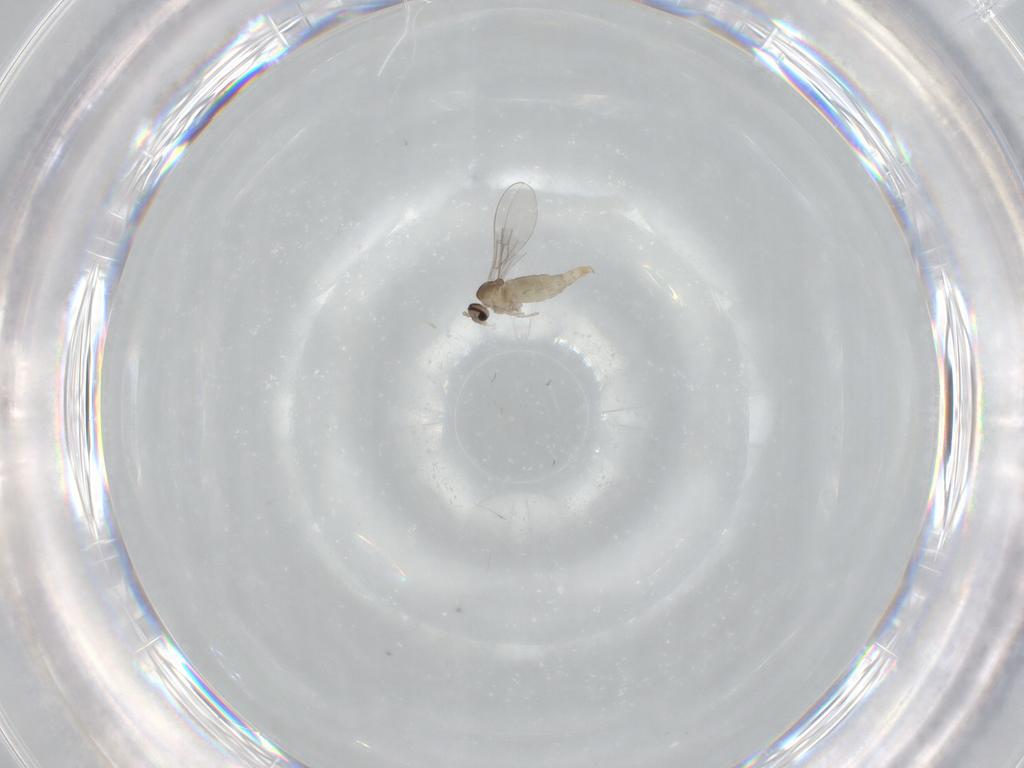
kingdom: Animalia
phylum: Arthropoda
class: Insecta
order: Diptera
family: Cecidomyiidae
